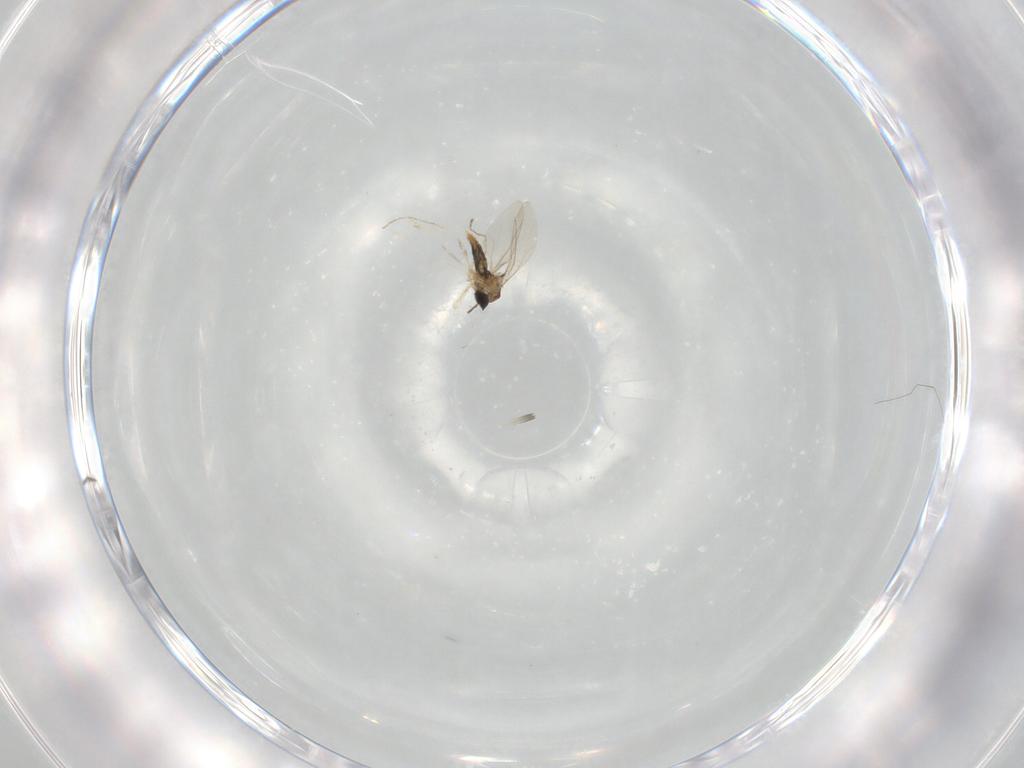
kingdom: Animalia
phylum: Arthropoda
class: Insecta
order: Diptera
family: Cecidomyiidae
